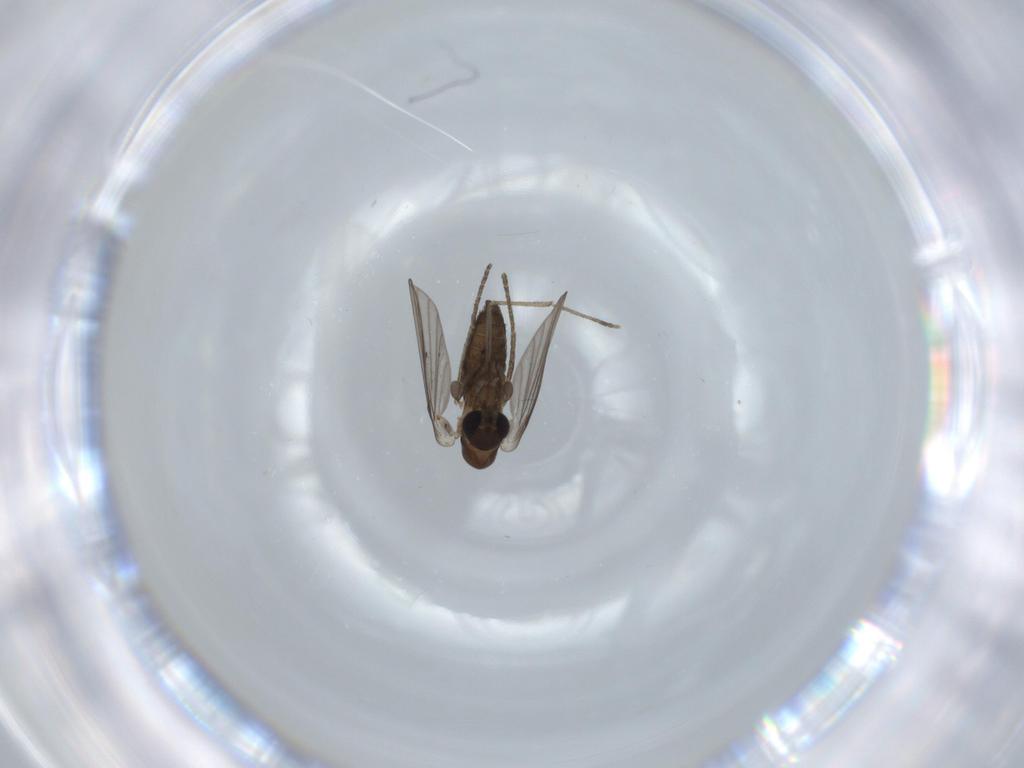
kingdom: Animalia
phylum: Arthropoda
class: Insecta
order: Diptera
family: Psychodidae
